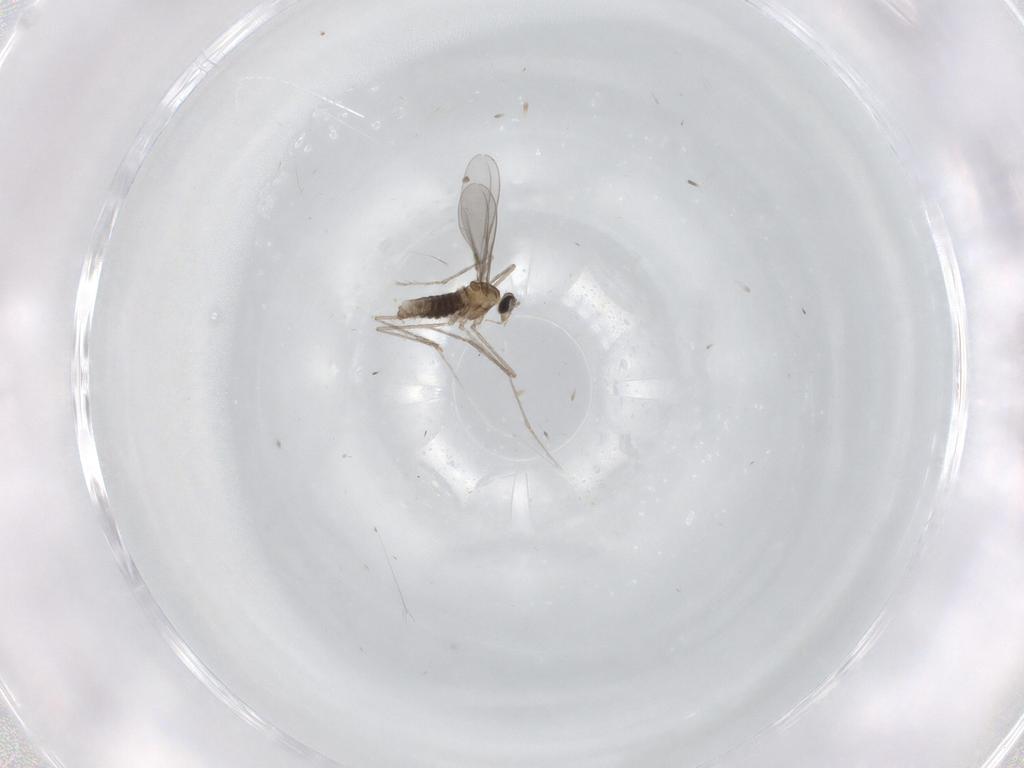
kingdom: Animalia
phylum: Arthropoda
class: Insecta
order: Diptera
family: Cecidomyiidae
